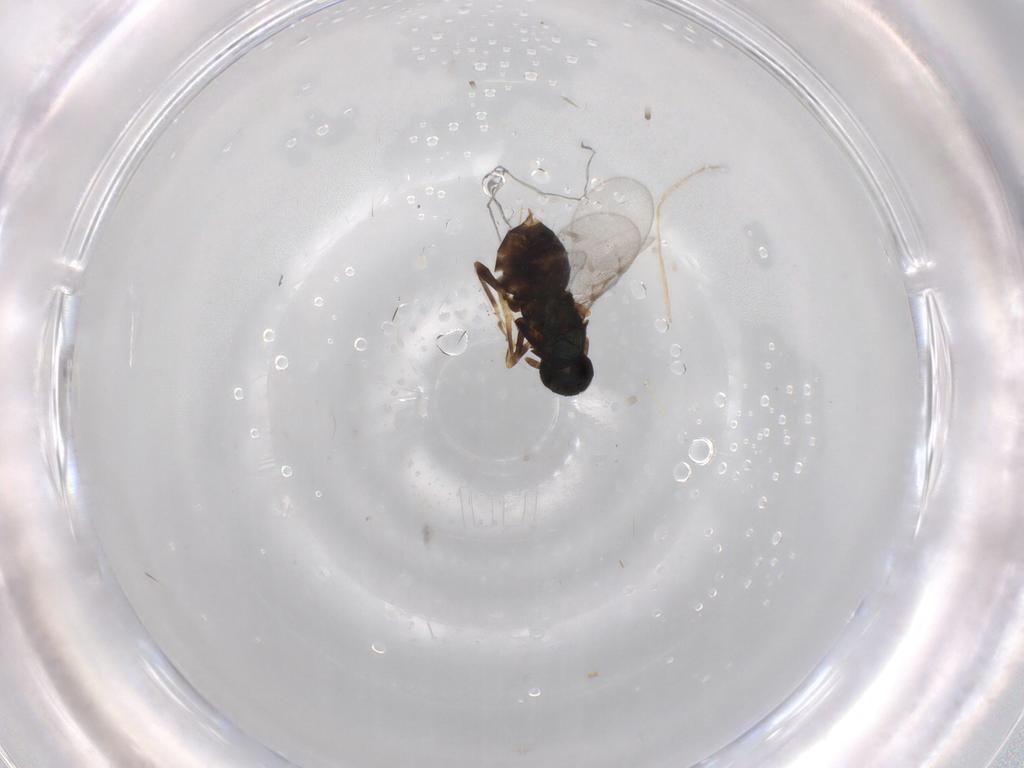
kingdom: Animalia
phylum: Arthropoda
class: Insecta
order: Hymenoptera
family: Encyrtidae
